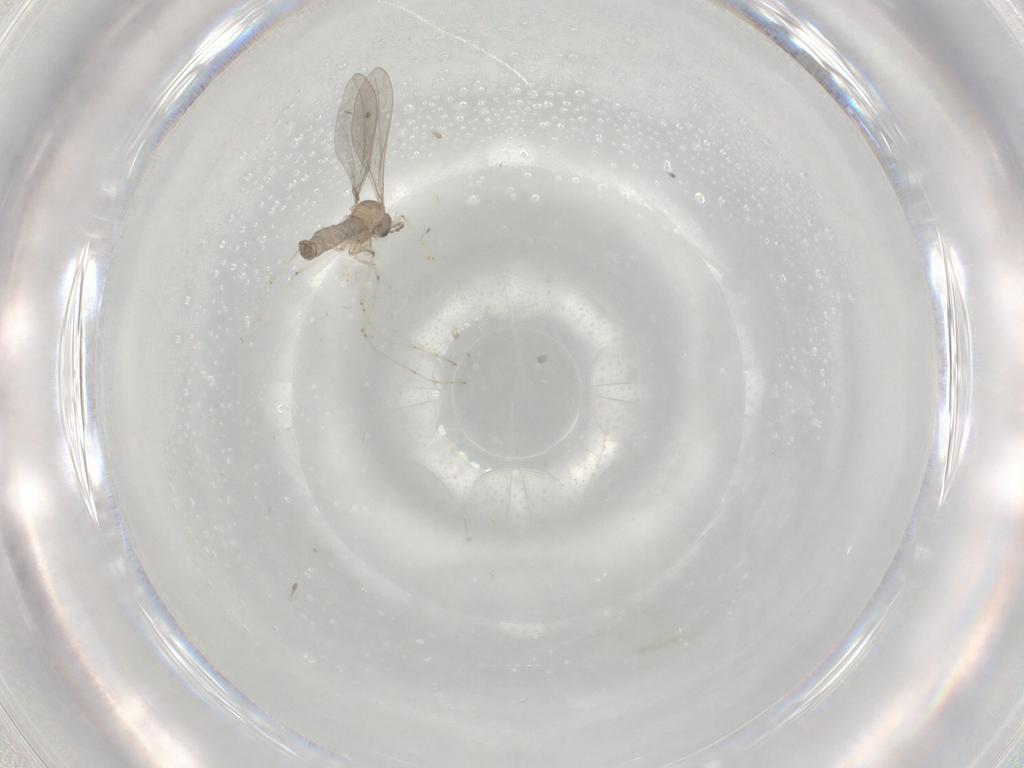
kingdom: Animalia
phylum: Arthropoda
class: Insecta
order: Diptera
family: Cecidomyiidae
